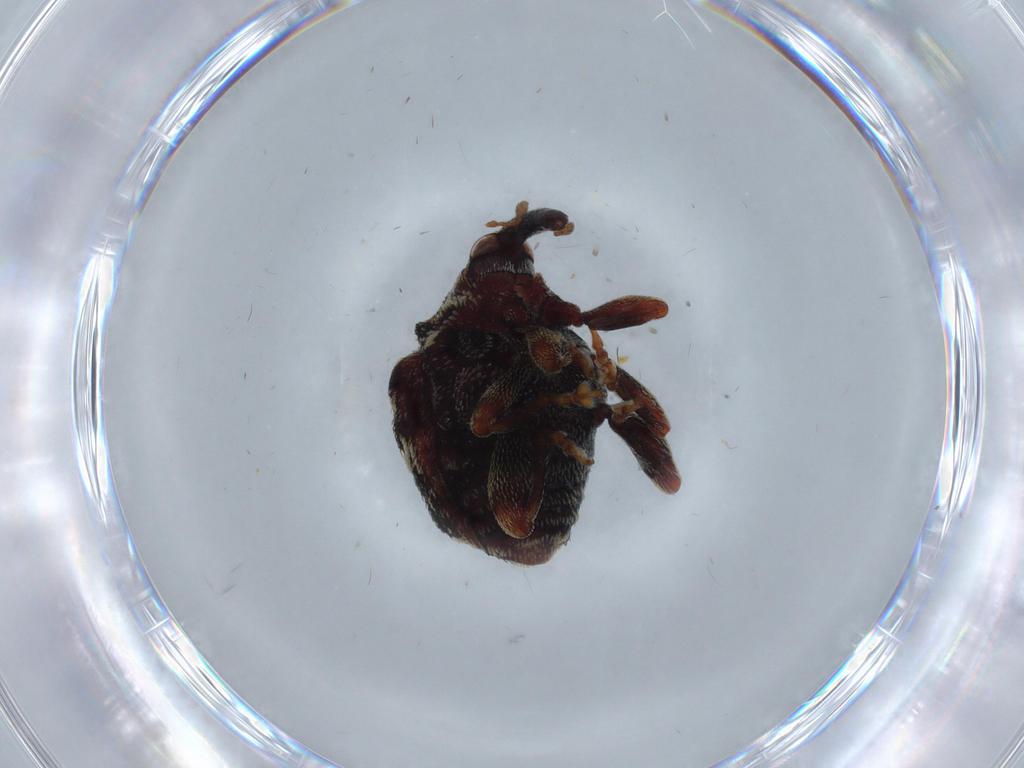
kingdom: Animalia
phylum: Arthropoda
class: Insecta
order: Coleoptera
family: Curculionidae
